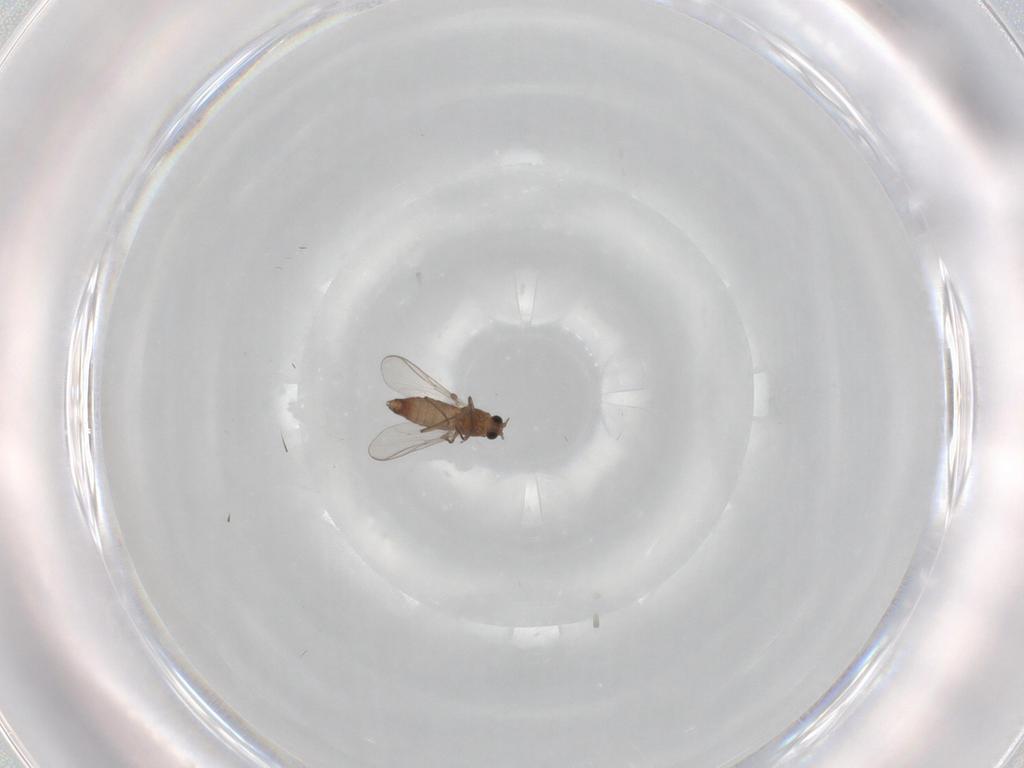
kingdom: Animalia
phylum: Arthropoda
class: Insecta
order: Diptera
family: Chironomidae
